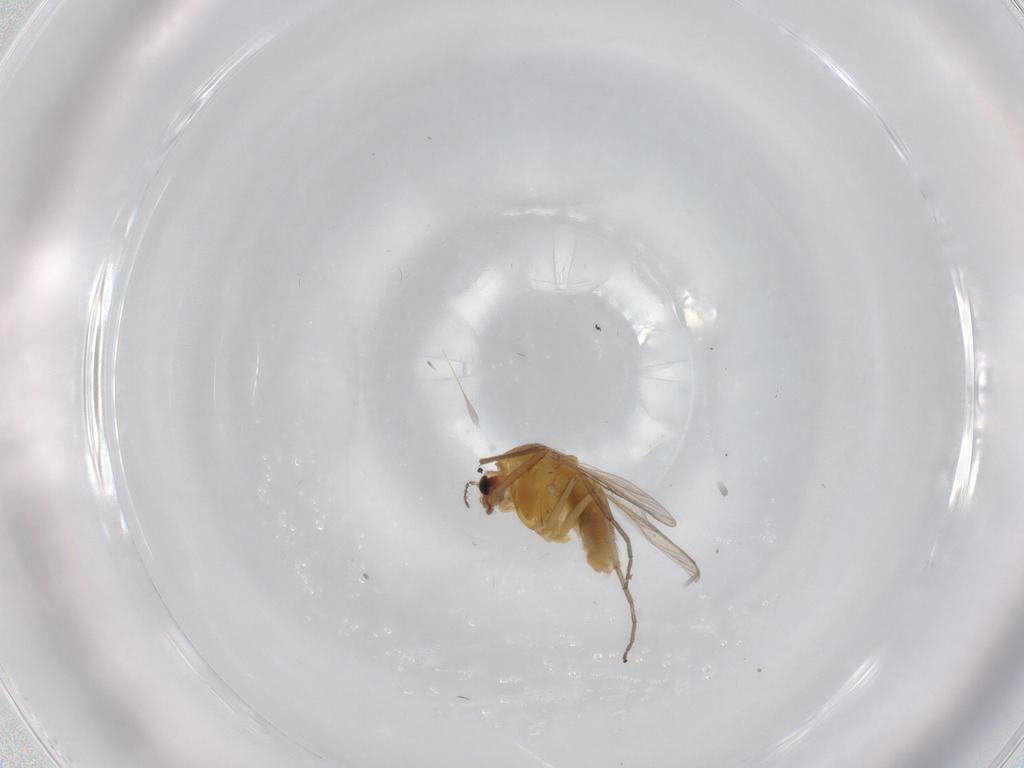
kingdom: Animalia
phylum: Arthropoda
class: Insecta
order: Diptera
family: Chironomidae
